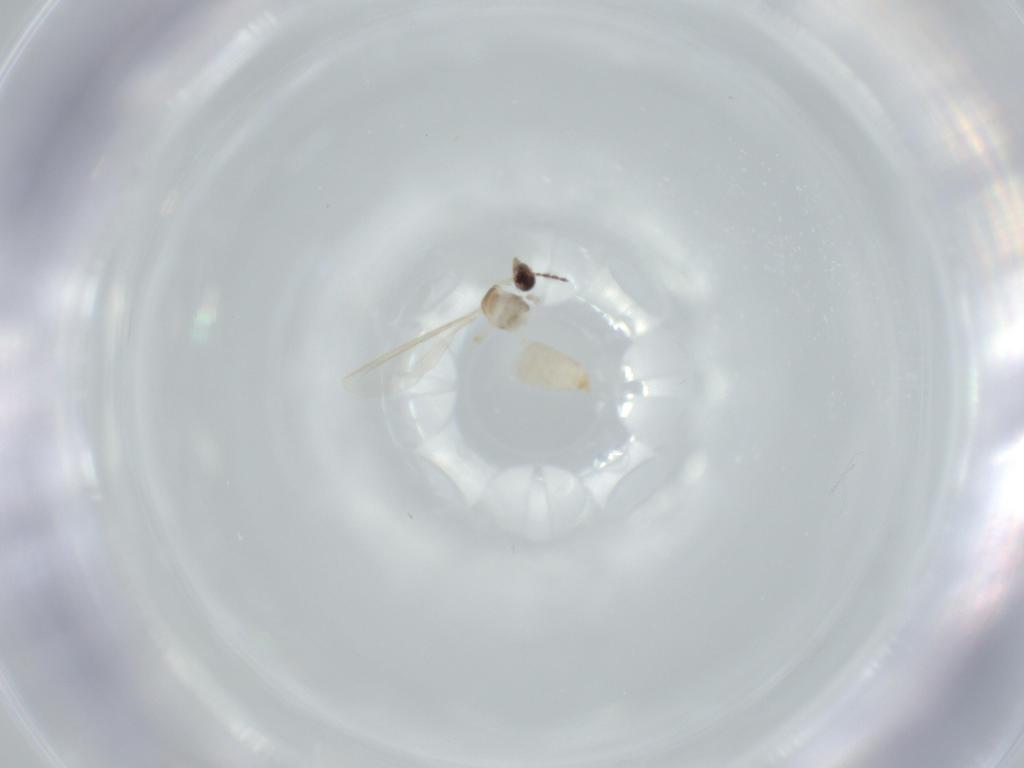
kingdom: Animalia
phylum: Arthropoda
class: Insecta
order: Diptera
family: Cecidomyiidae
